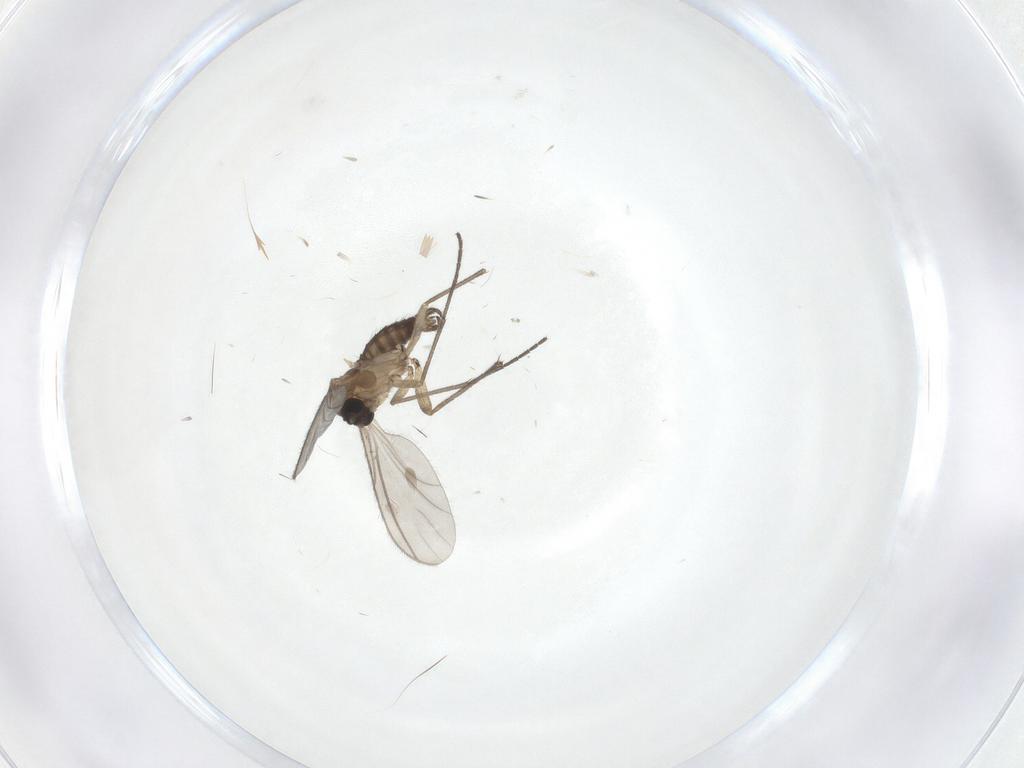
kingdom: Animalia
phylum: Arthropoda
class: Insecta
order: Diptera
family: Sciaridae
